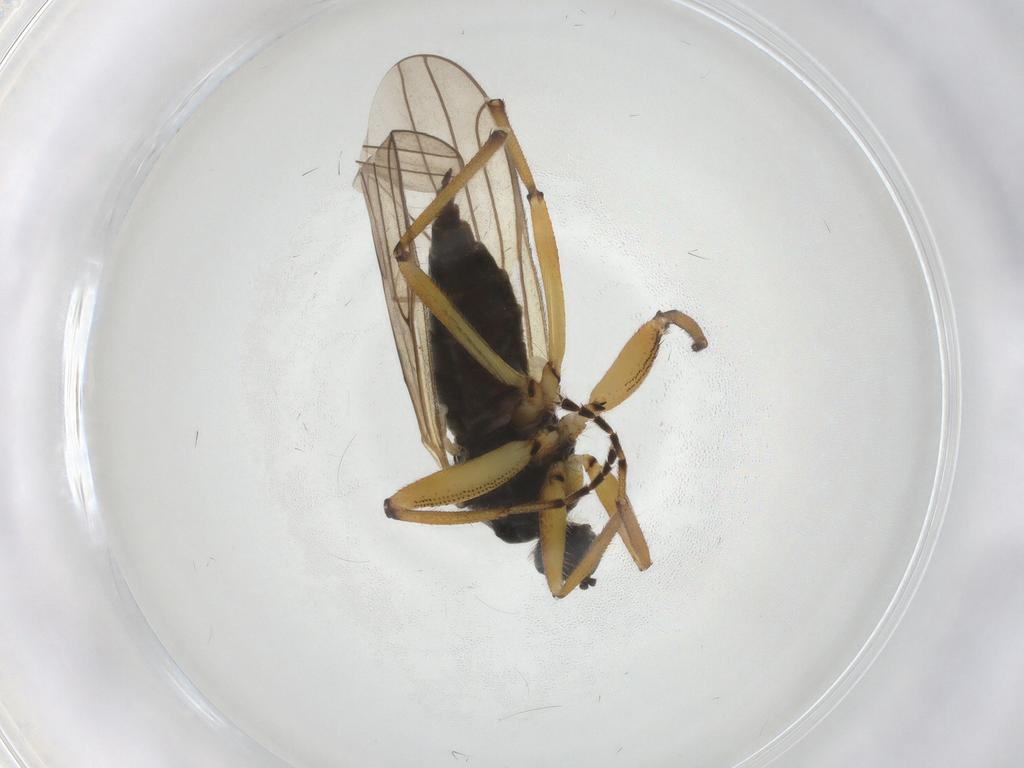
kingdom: Animalia
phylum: Arthropoda
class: Insecta
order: Diptera
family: Hybotidae
